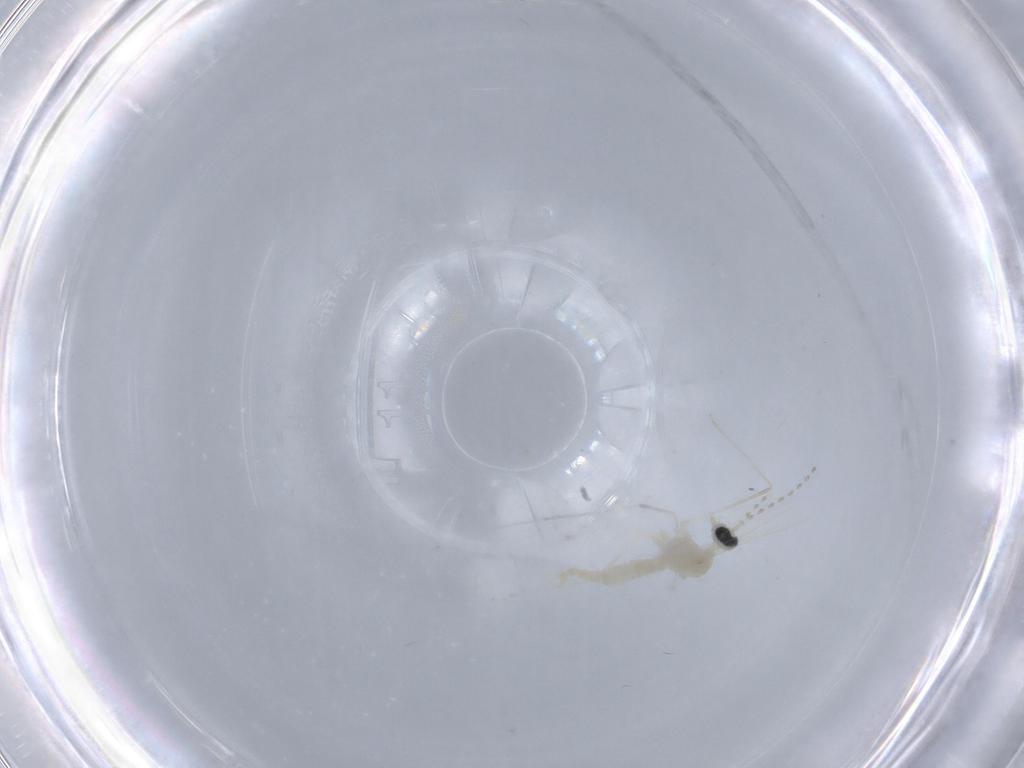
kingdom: Animalia
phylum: Arthropoda
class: Insecta
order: Diptera
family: Cecidomyiidae
